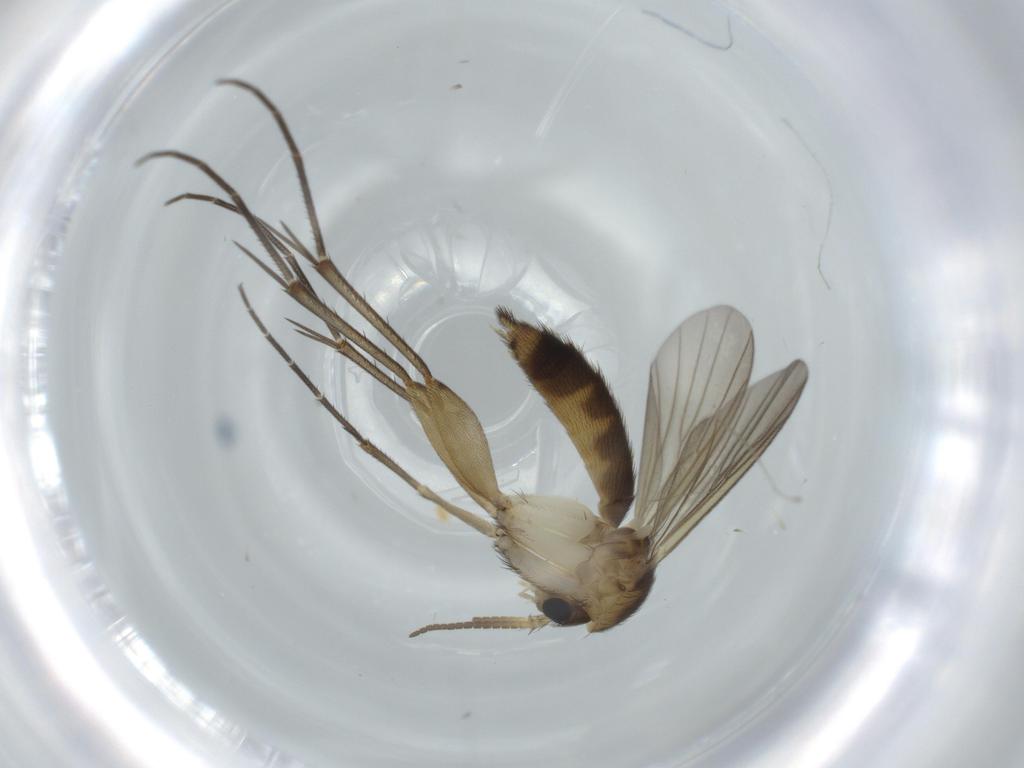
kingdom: Animalia
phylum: Arthropoda
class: Insecta
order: Diptera
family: Mycetophilidae
